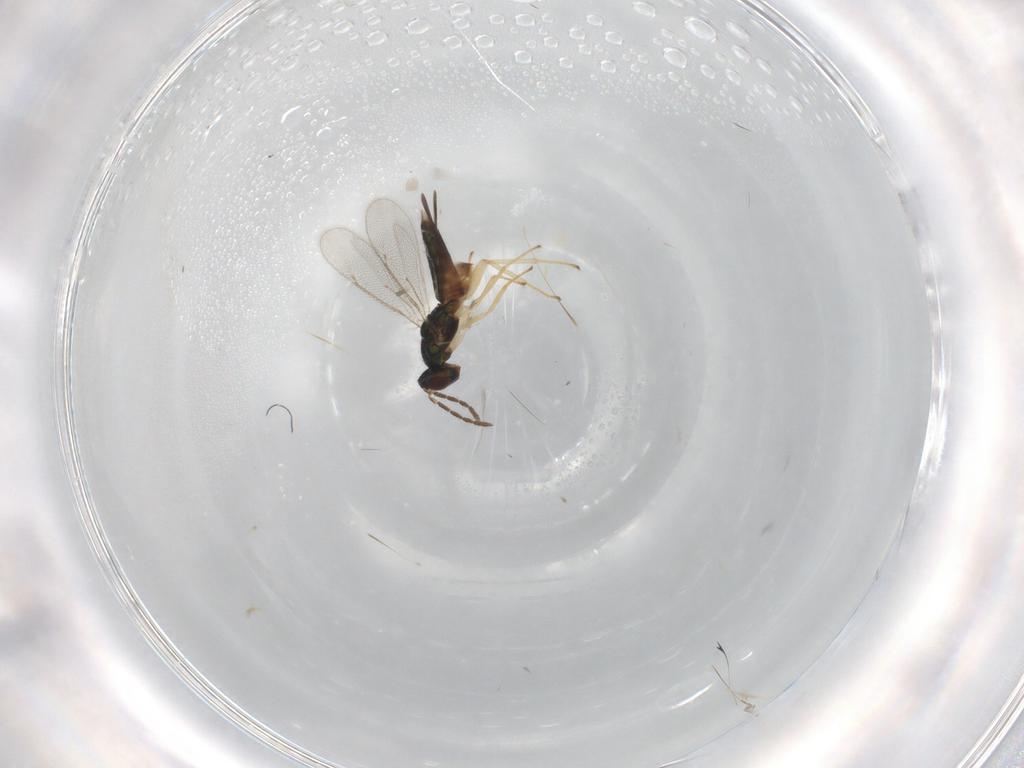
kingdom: Animalia
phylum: Arthropoda
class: Insecta
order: Hymenoptera
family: Eulophidae
